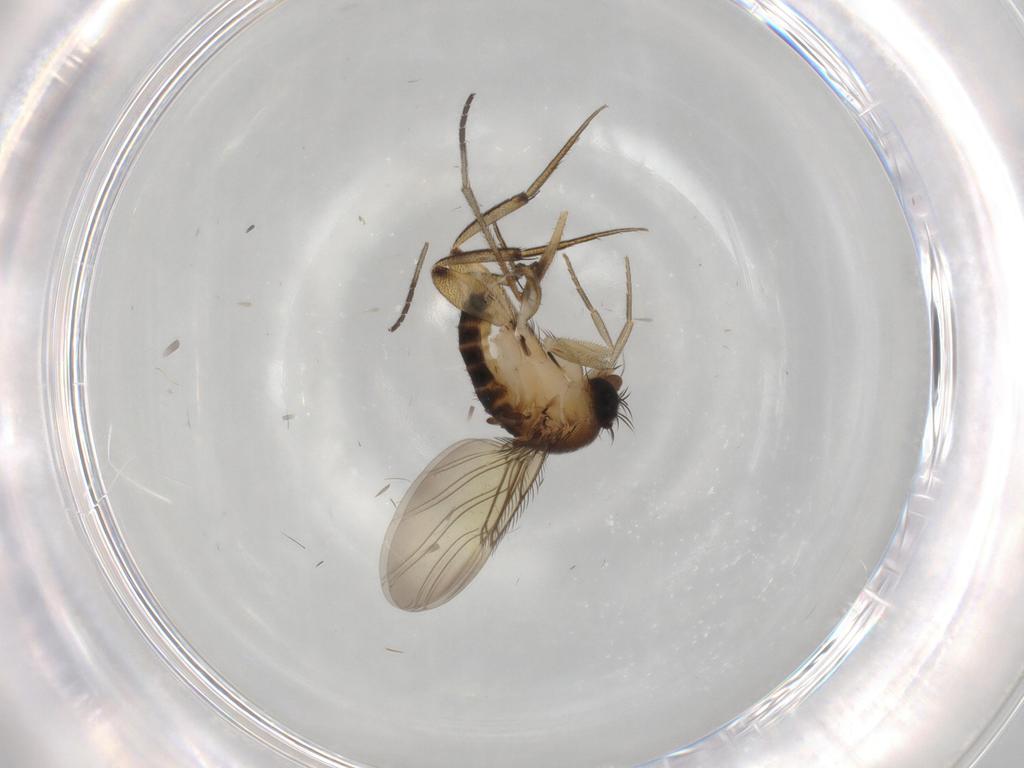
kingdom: Animalia
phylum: Arthropoda
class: Insecta
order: Diptera
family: Phoridae
